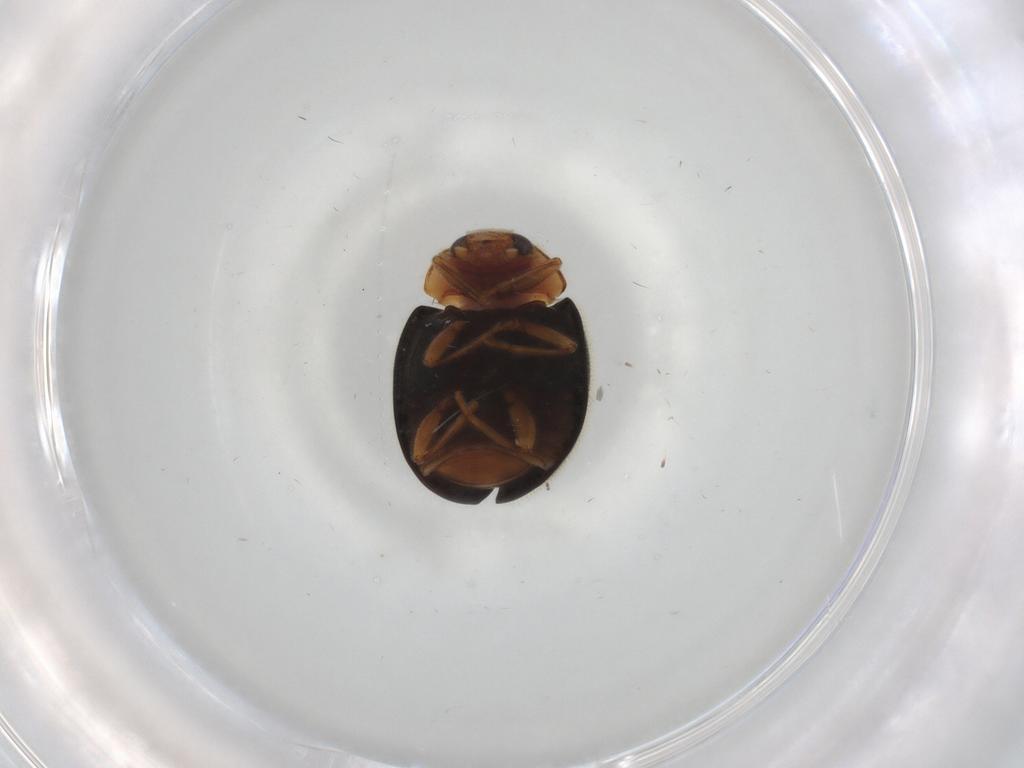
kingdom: Animalia
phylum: Arthropoda
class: Insecta
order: Coleoptera
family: Coccinellidae
